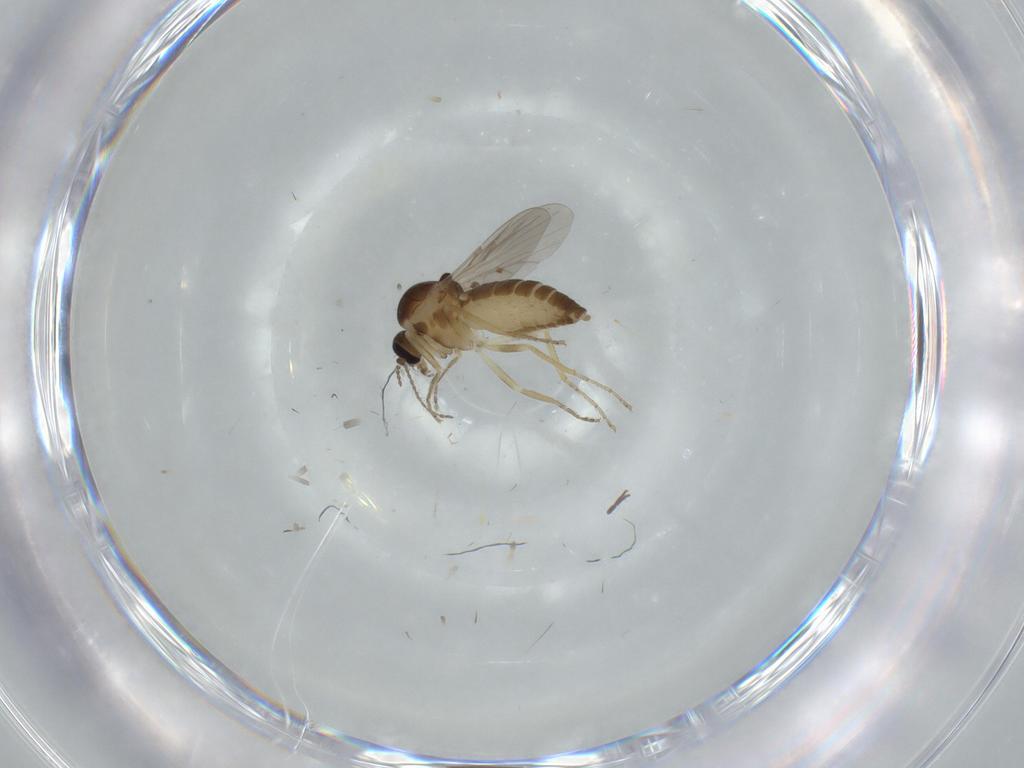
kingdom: Animalia
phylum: Arthropoda
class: Insecta
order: Diptera
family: Ceratopogonidae
